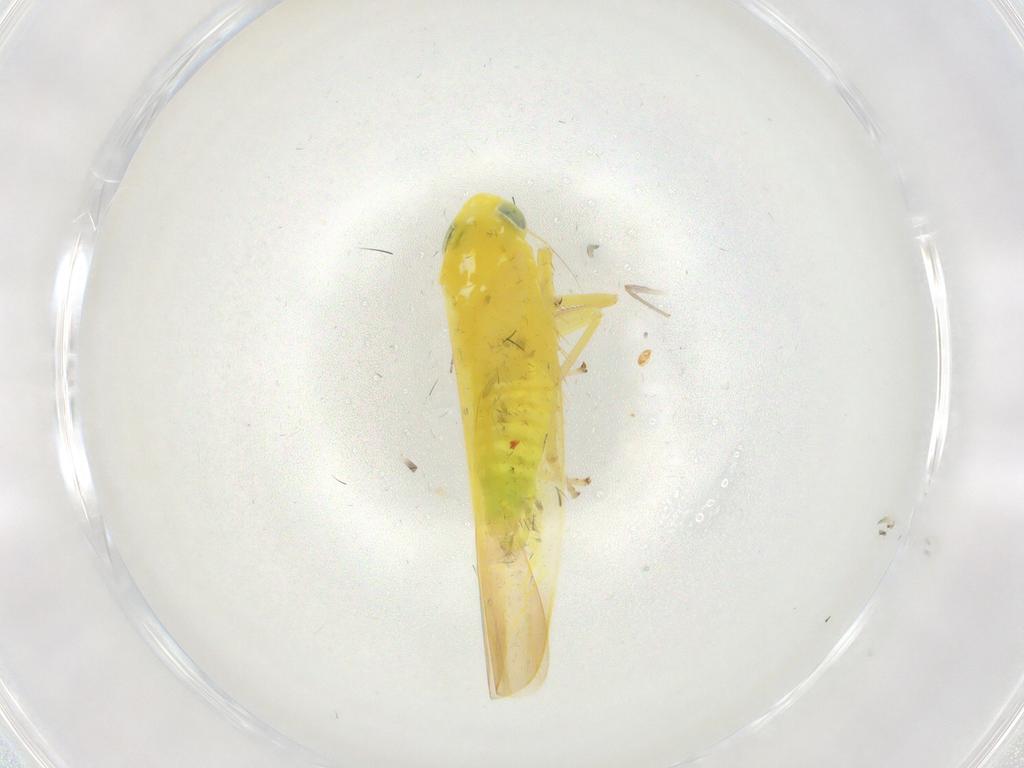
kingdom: Animalia
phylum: Arthropoda
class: Insecta
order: Hemiptera
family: Cicadellidae
